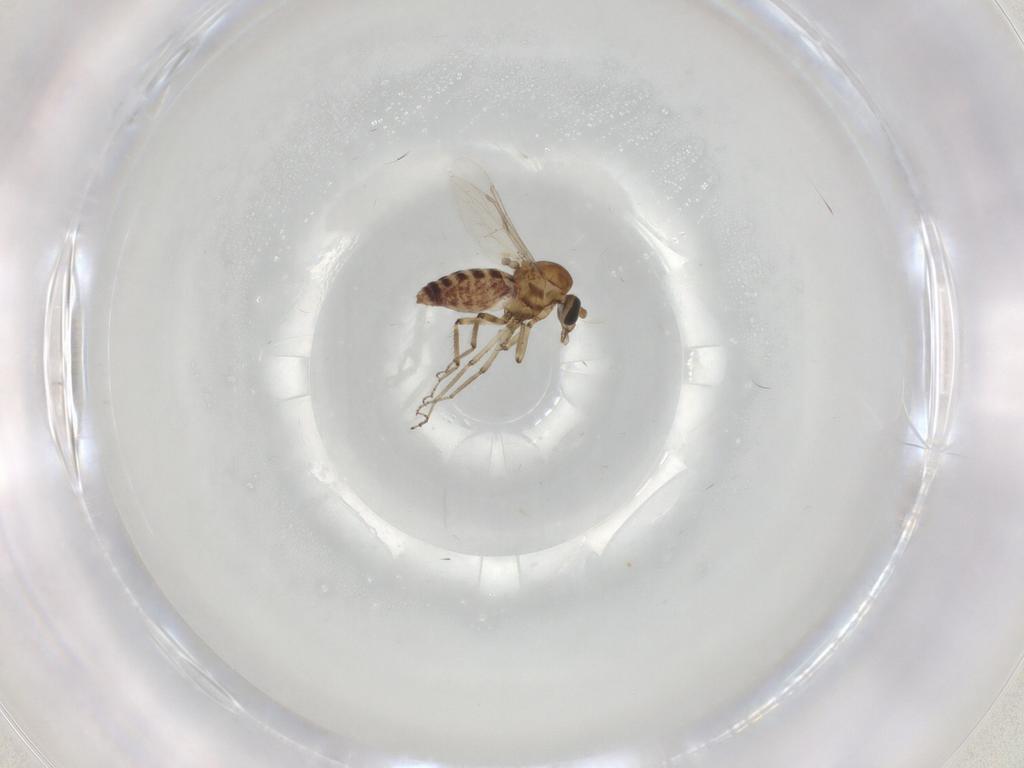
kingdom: Animalia
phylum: Arthropoda
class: Insecta
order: Diptera
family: Ceratopogonidae
